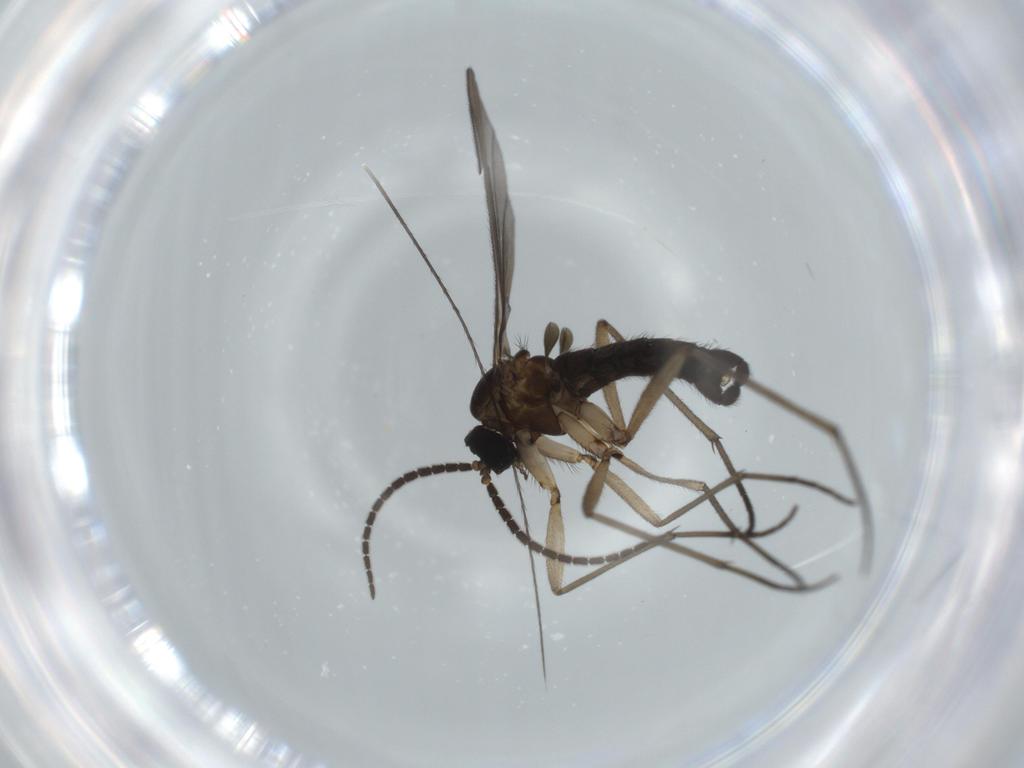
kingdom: Animalia
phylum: Arthropoda
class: Insecta
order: Diptera
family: Sciaridae
